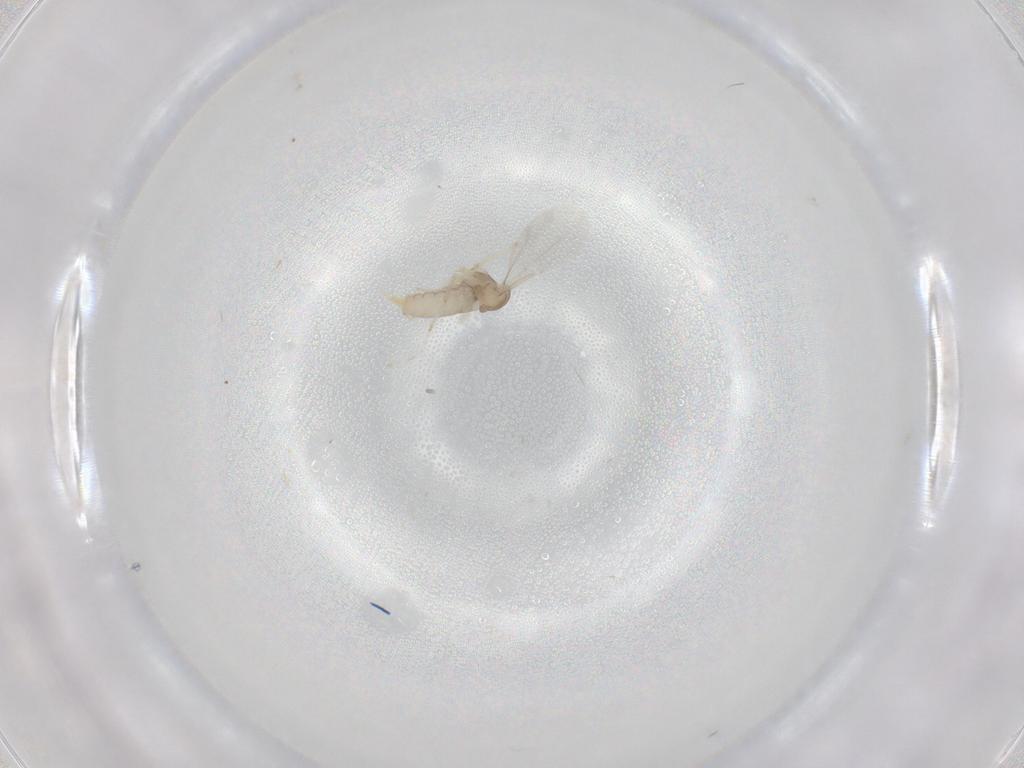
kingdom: Animalia
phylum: Arthropoda
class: Insecta
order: Diptera
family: Cecidomyiidae
